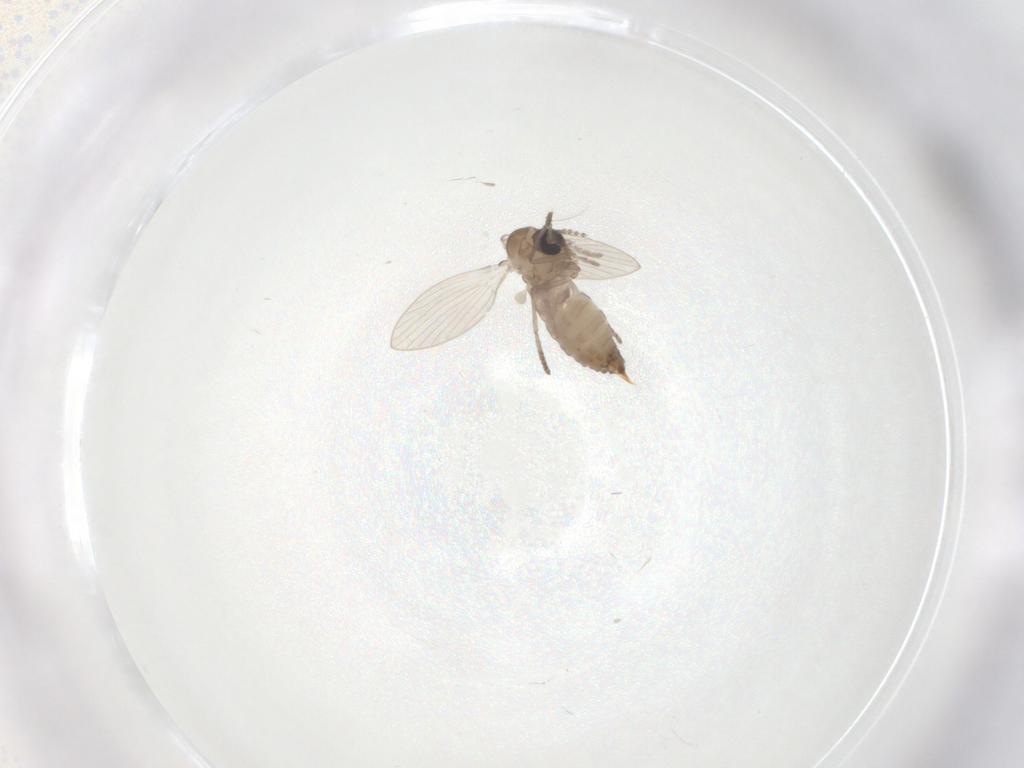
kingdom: Animalia
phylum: Arthropoda
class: Insecta
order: Diptera
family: Psychodidae
